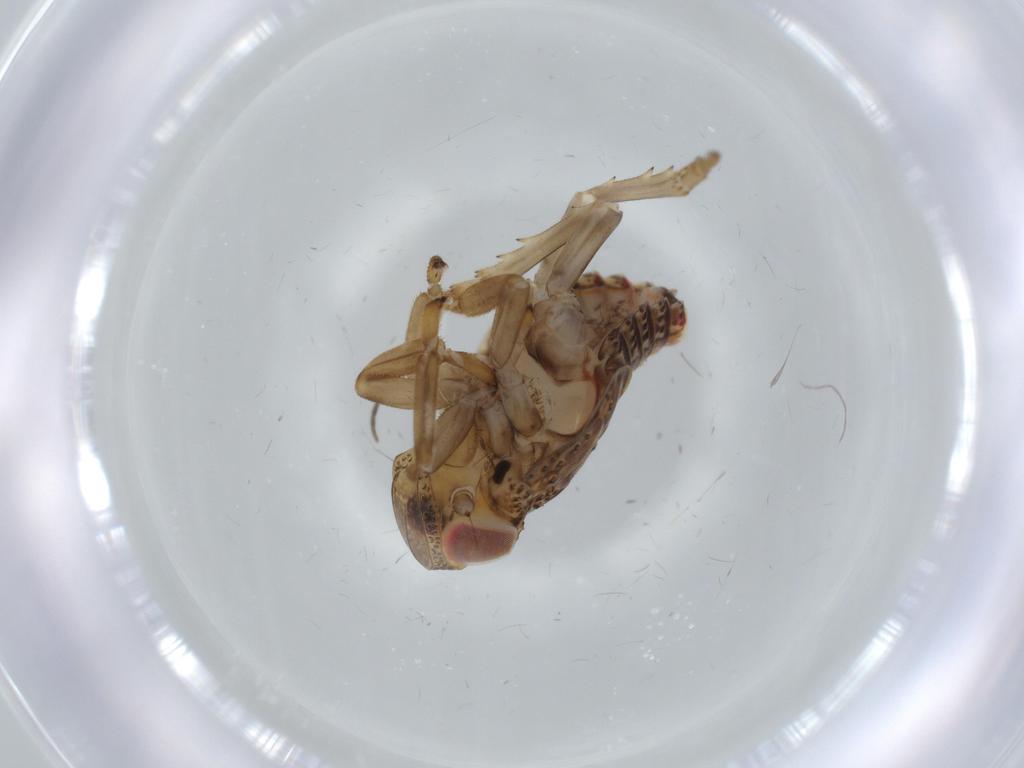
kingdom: Animalia
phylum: Arthropoda
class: Insecta
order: Hemiptera
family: Issidae
